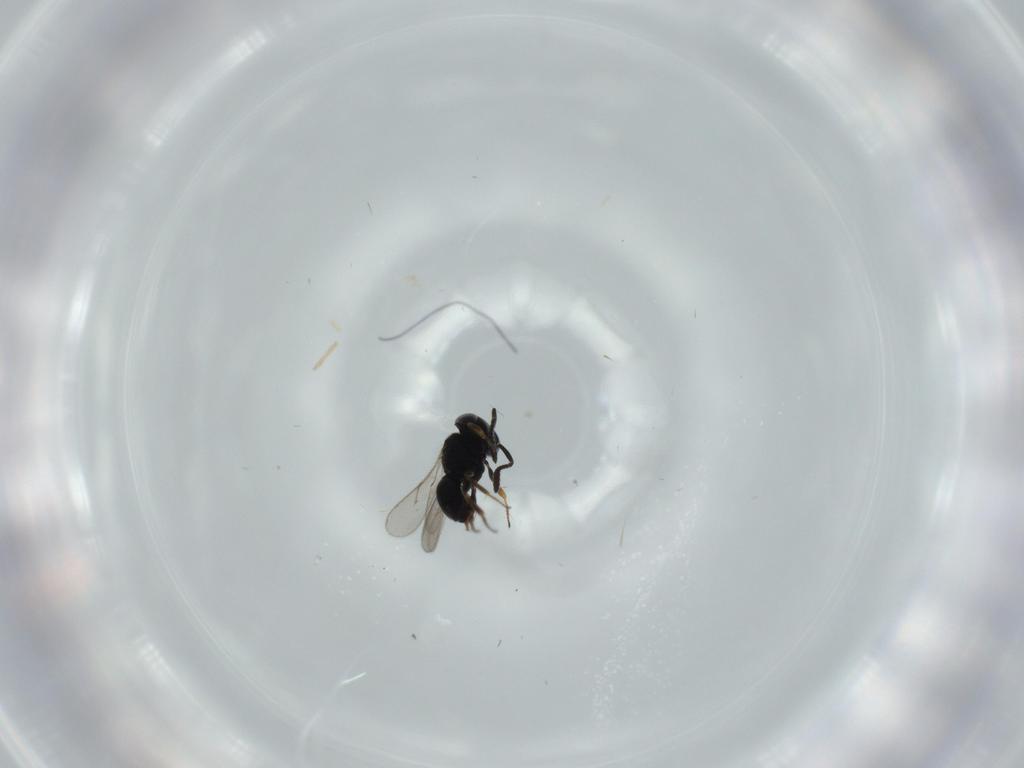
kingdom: Animalia
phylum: Arthropoda
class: Insecta
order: Hymenoptera
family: Scelionidae
